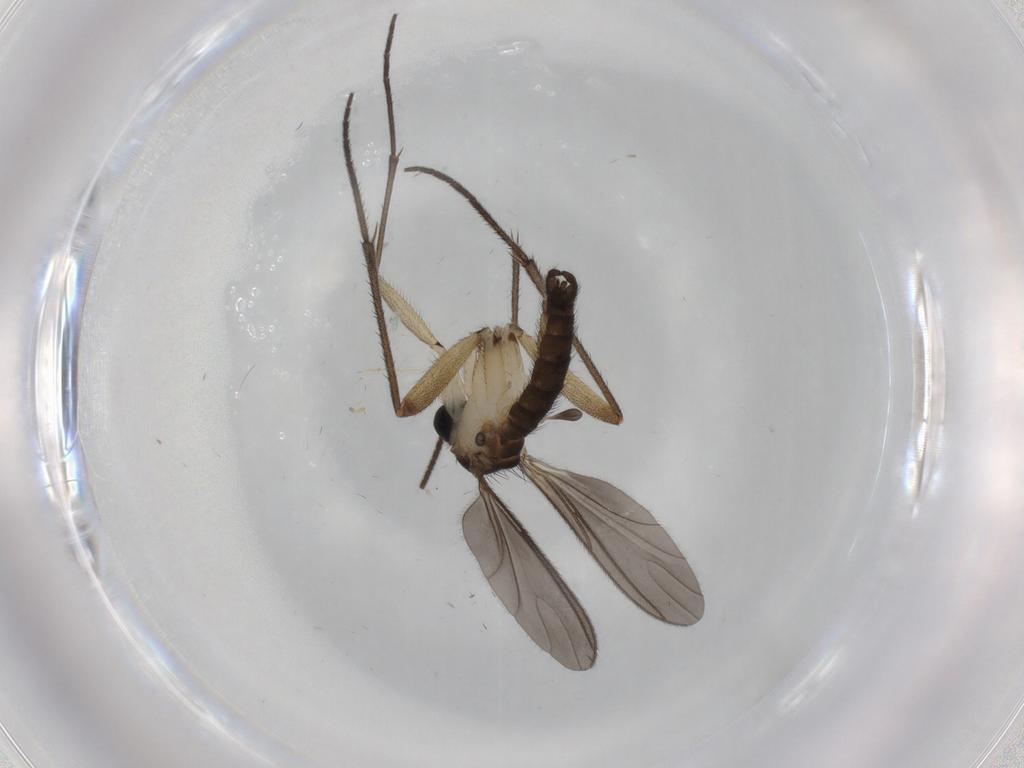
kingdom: Animalia
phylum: Arthropoda
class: Insecta
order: Diptera
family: Sciaridae
